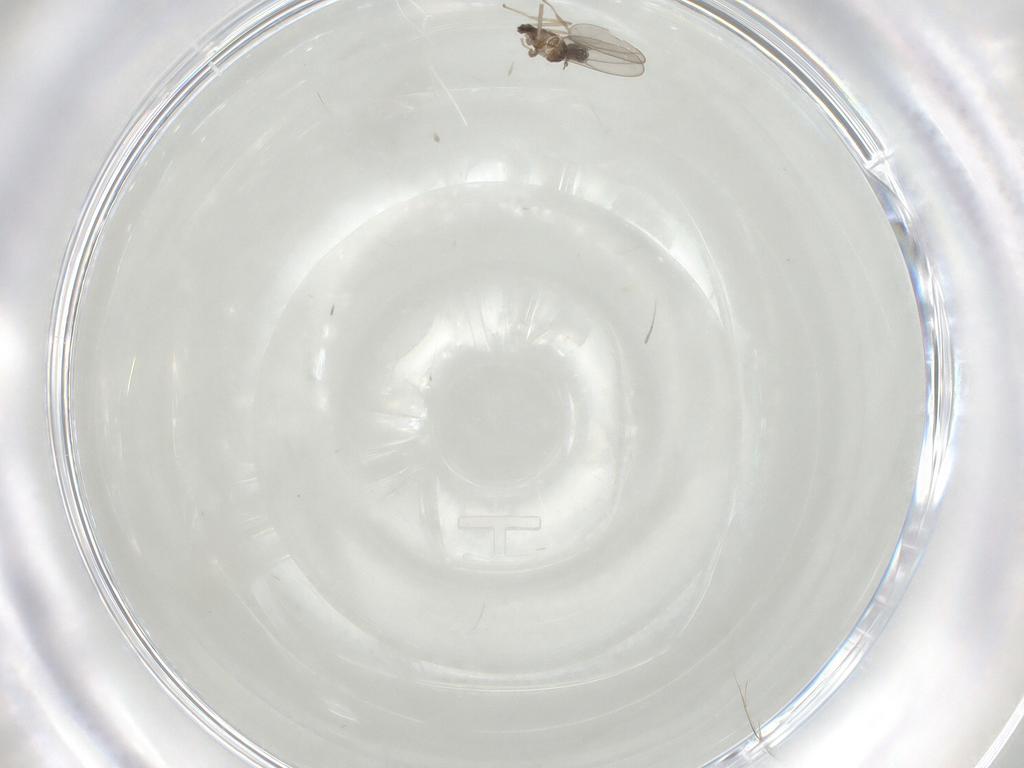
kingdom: Animalia
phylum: Arthropoda
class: Insecta
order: Diptera
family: Cecidomyiidae
